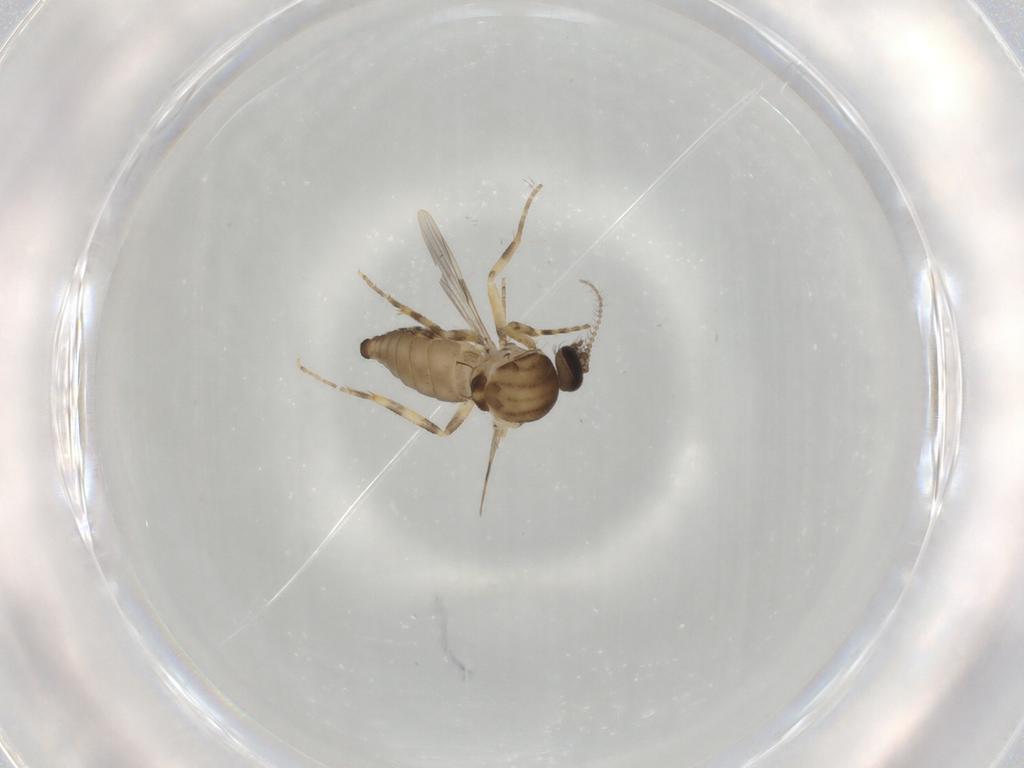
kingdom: Animalia
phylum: Arthropoda
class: Insecta
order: Diptera
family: Ceratopogonidae
